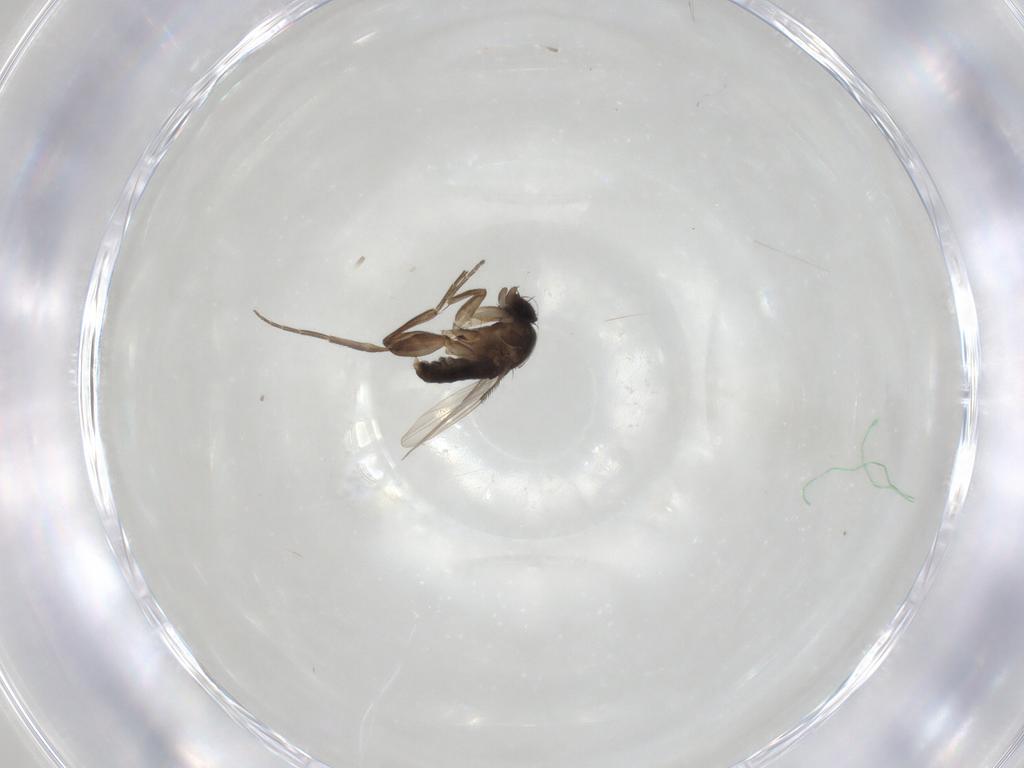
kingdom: Animalia
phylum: Arthropoda
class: Insecta
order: Diptera
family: Phoridae
